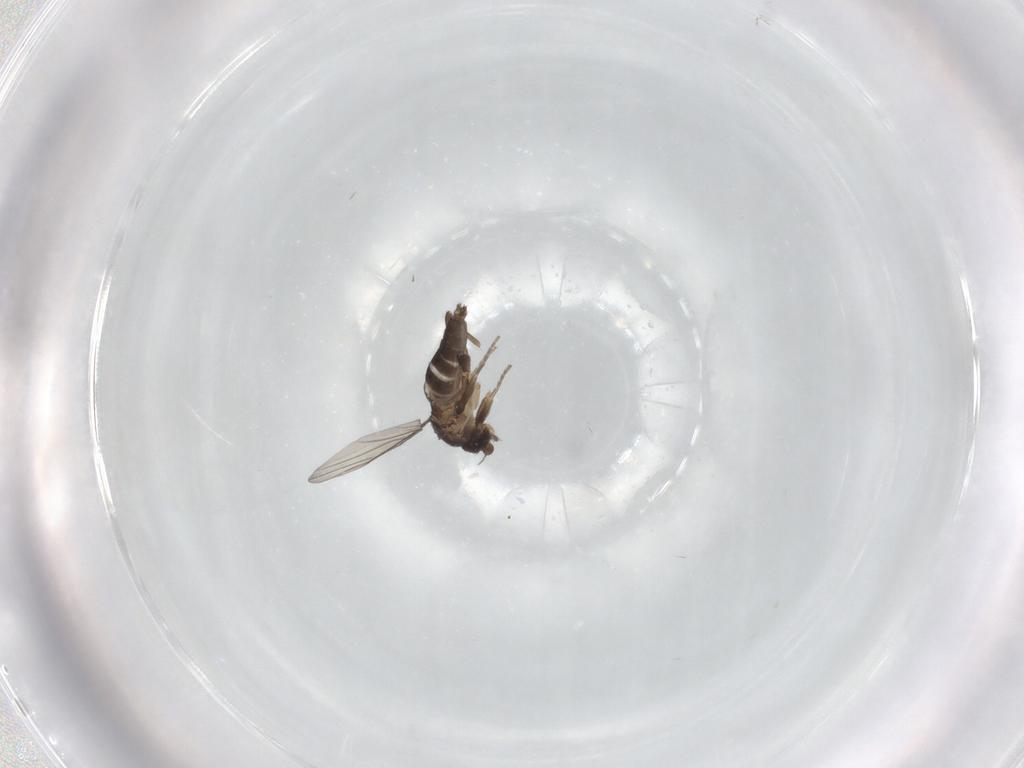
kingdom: Animalia
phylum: Arthropoda
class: Insecta
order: Diptera
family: Phoridae
